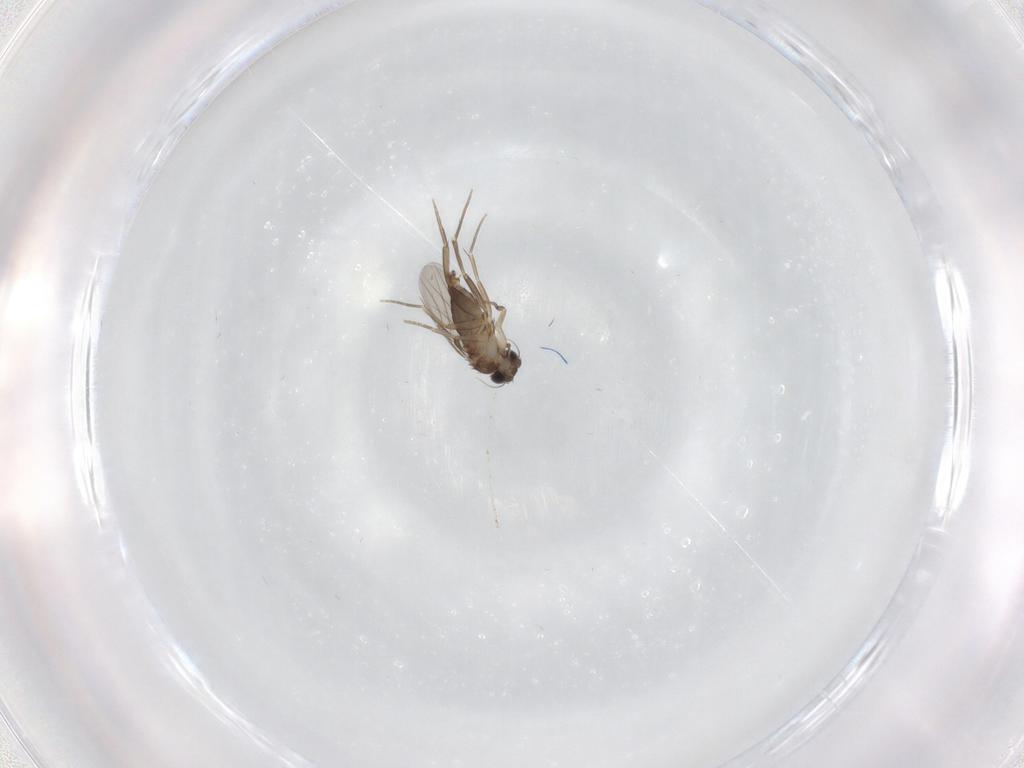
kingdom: Animalia
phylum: Arthropoda
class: Insecta
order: Diptera
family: Phoridae
